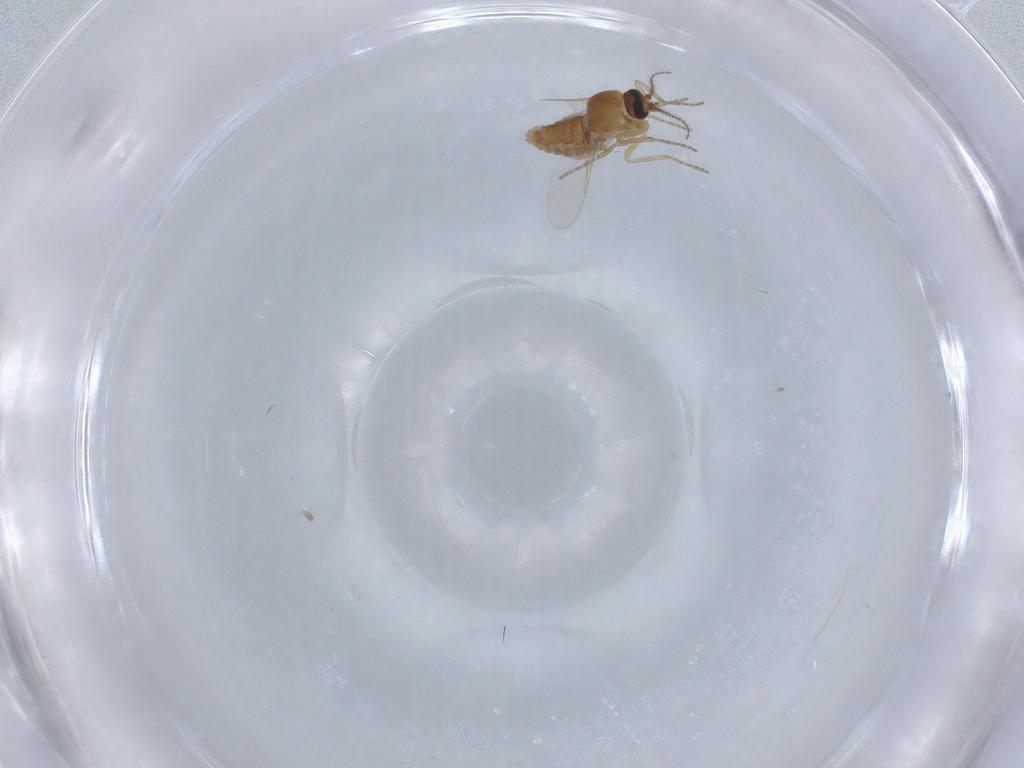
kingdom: Animalia
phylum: Arthropoda
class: Insecta
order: Diptera
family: Ceratopogonidae
